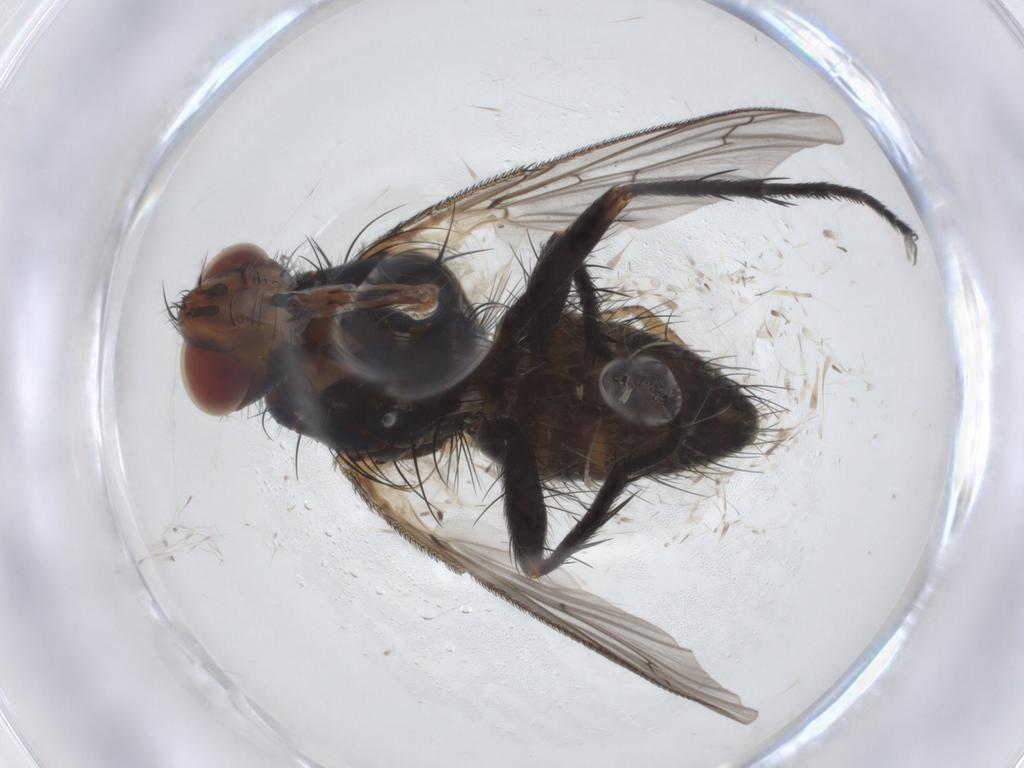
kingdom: Animalia
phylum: Arthropoda
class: Insecta
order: Diptera
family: Tachinidae
